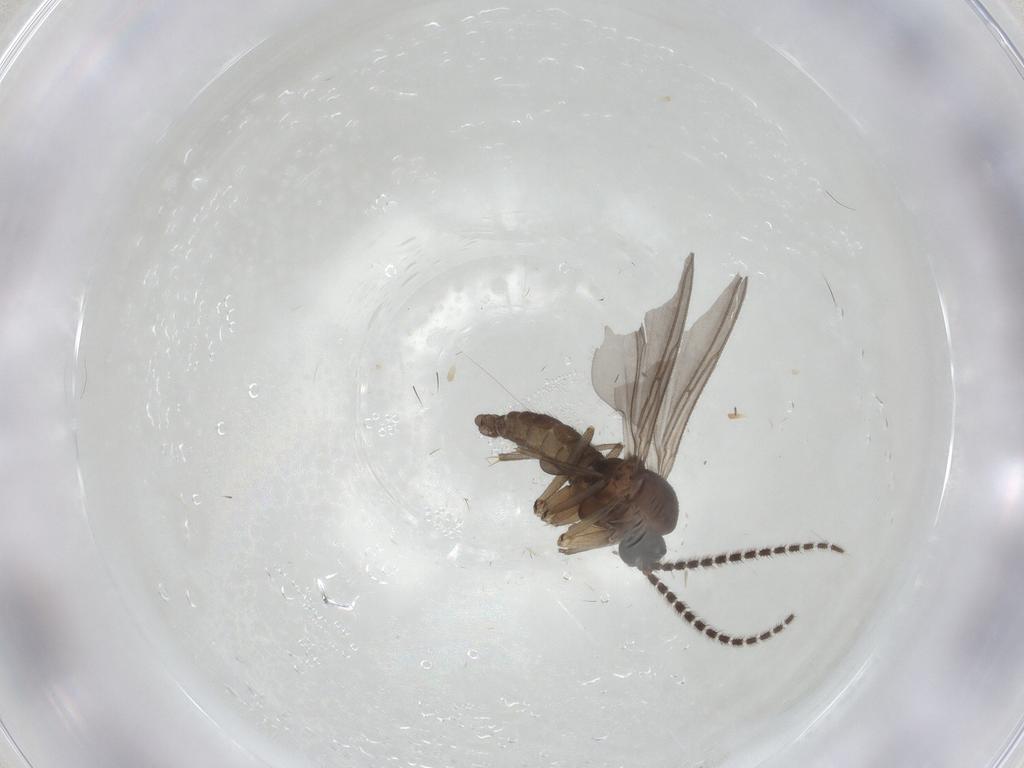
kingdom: Animalia
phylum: Arthropoda
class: Insecta
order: Diptera
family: Sciaridae
